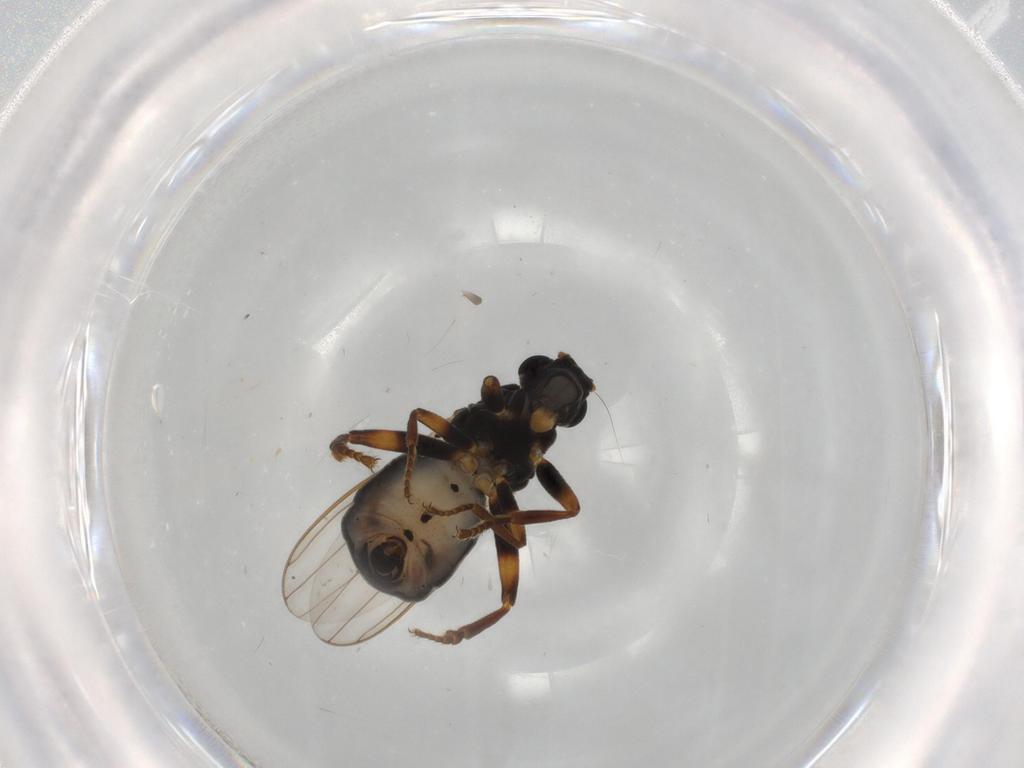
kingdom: Animalia
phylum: Arthropoda
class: Insecta
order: Diptera
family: Sphaeroceridae
